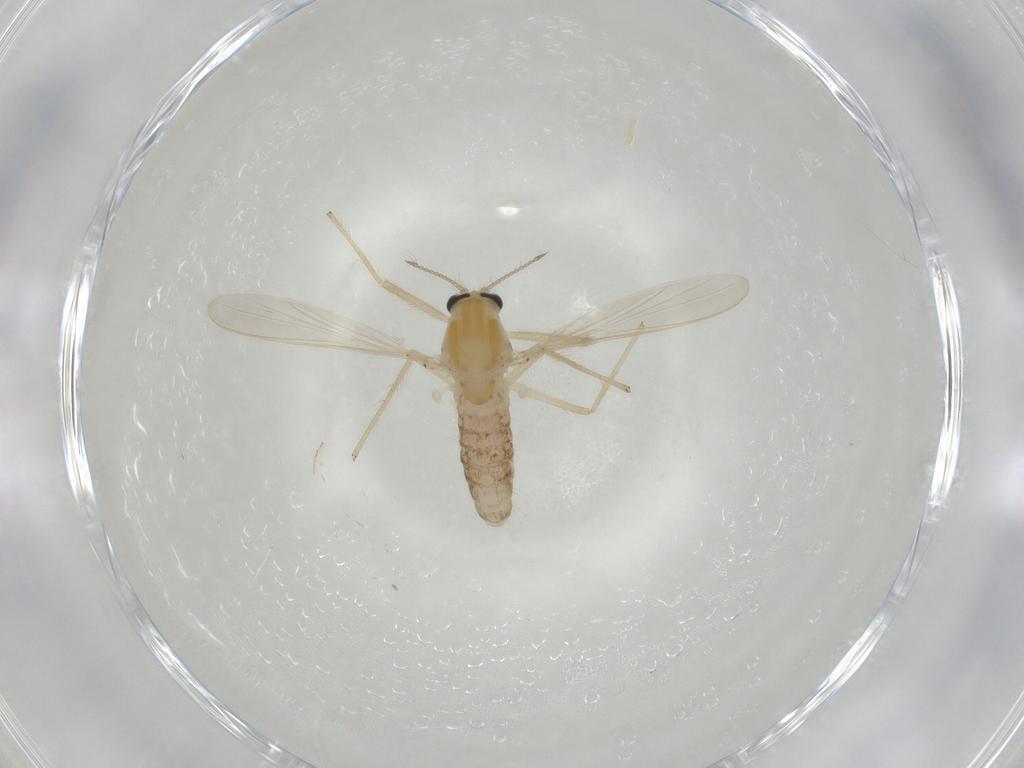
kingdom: Animalia
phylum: Arthropoda
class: Insecta
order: Diptera
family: Chironomidae
